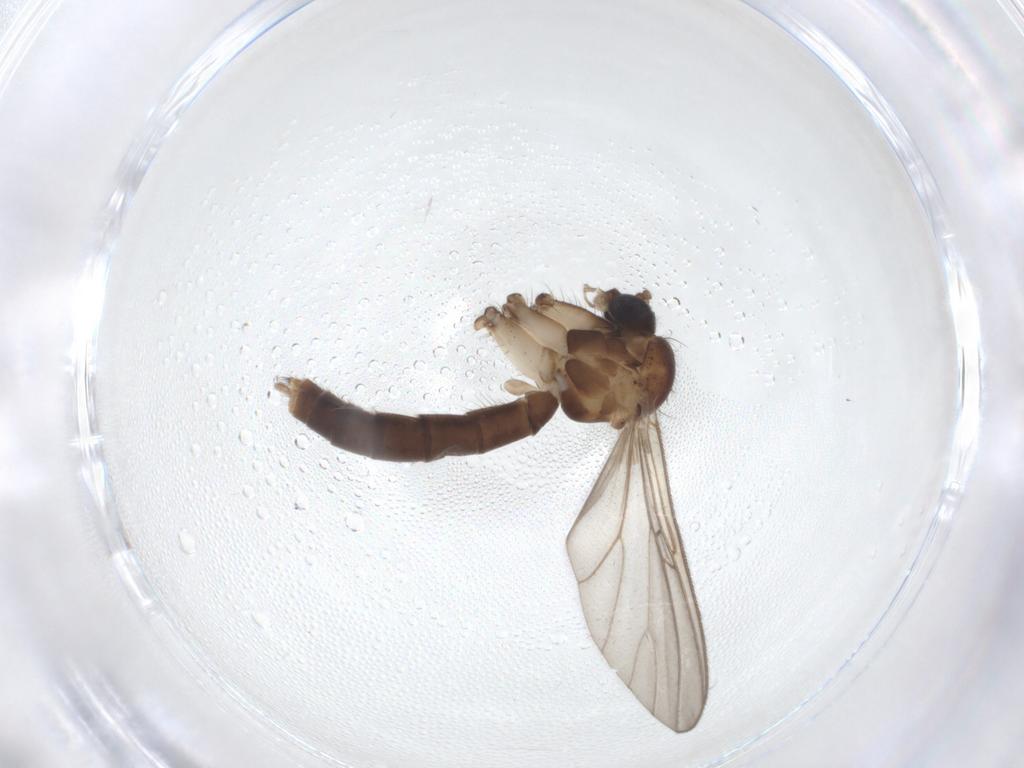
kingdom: Animalia
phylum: Arthropoda
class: Insecta
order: Diptera
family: Mycetophilidae
